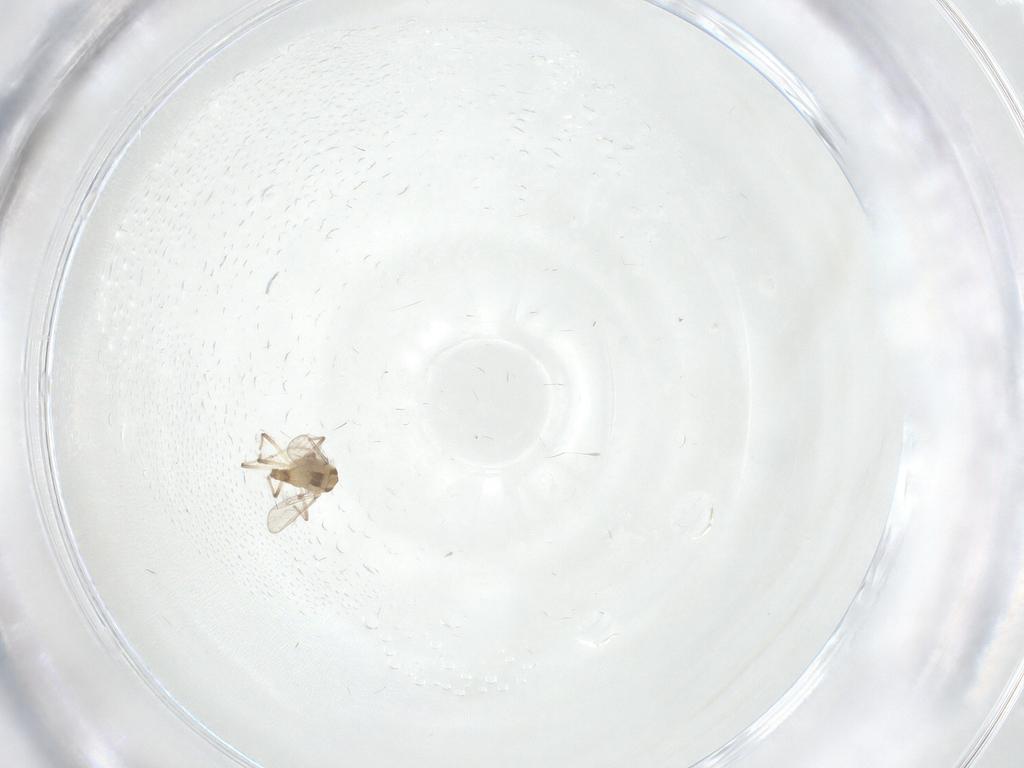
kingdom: Animalia
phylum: Arthropoda
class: Insecta
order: Diptera
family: Chironomidae
